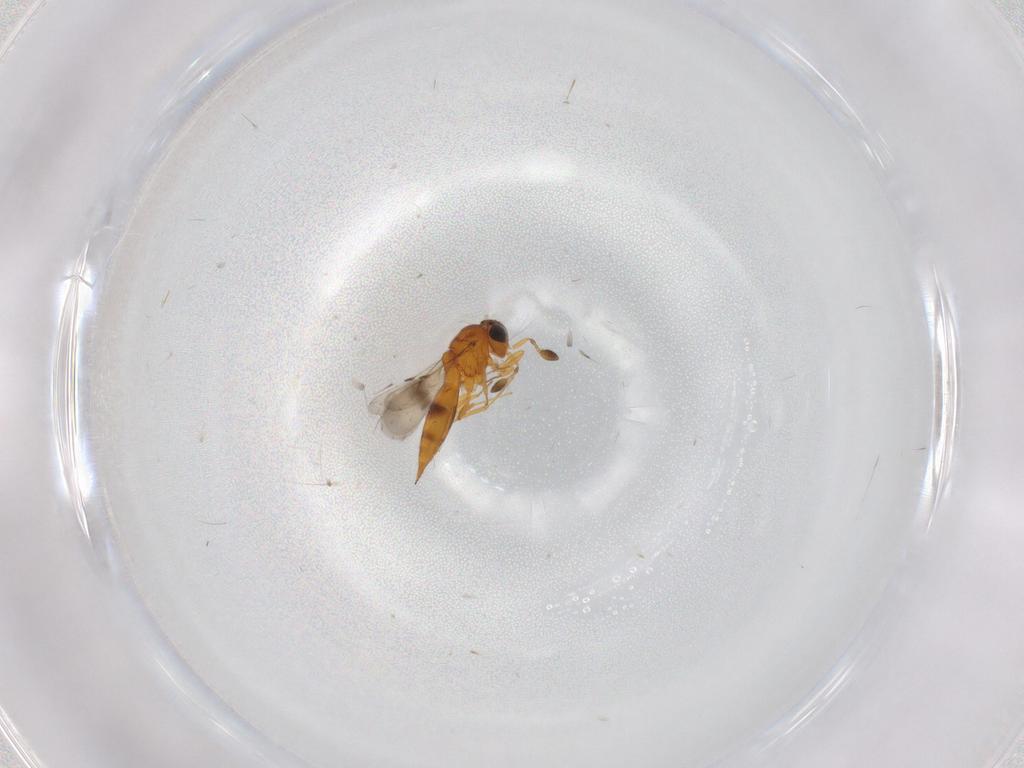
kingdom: Animalia
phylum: Arthropoda
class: Insecta
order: Hymenoptera
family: Scelionidae
